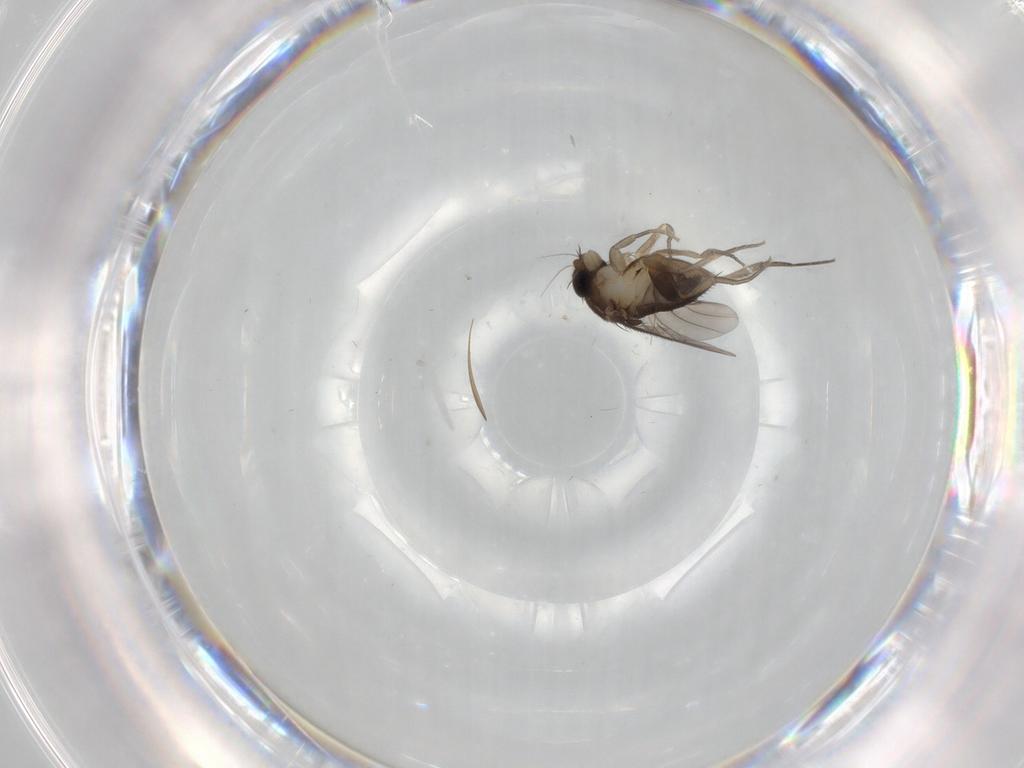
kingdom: Animalia
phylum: Arthropoda
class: Insecta
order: Diptera
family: Phoridae
